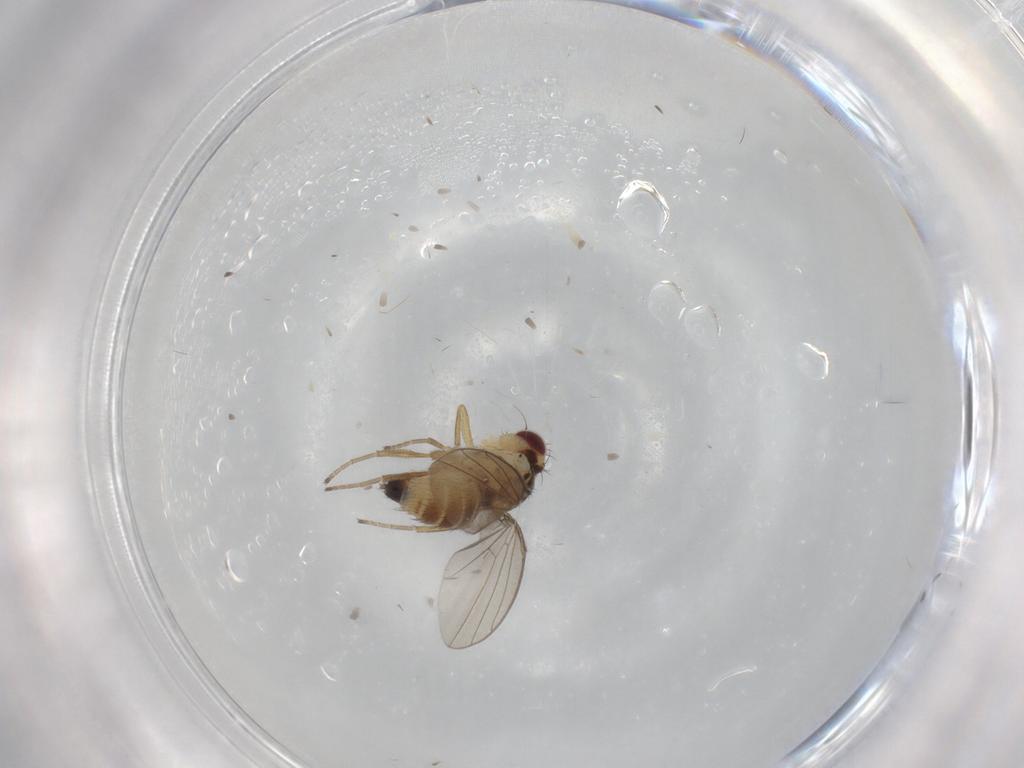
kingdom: Animalia
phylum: Arthropoda
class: Insecta
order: Diptera
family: Agromyzidae
